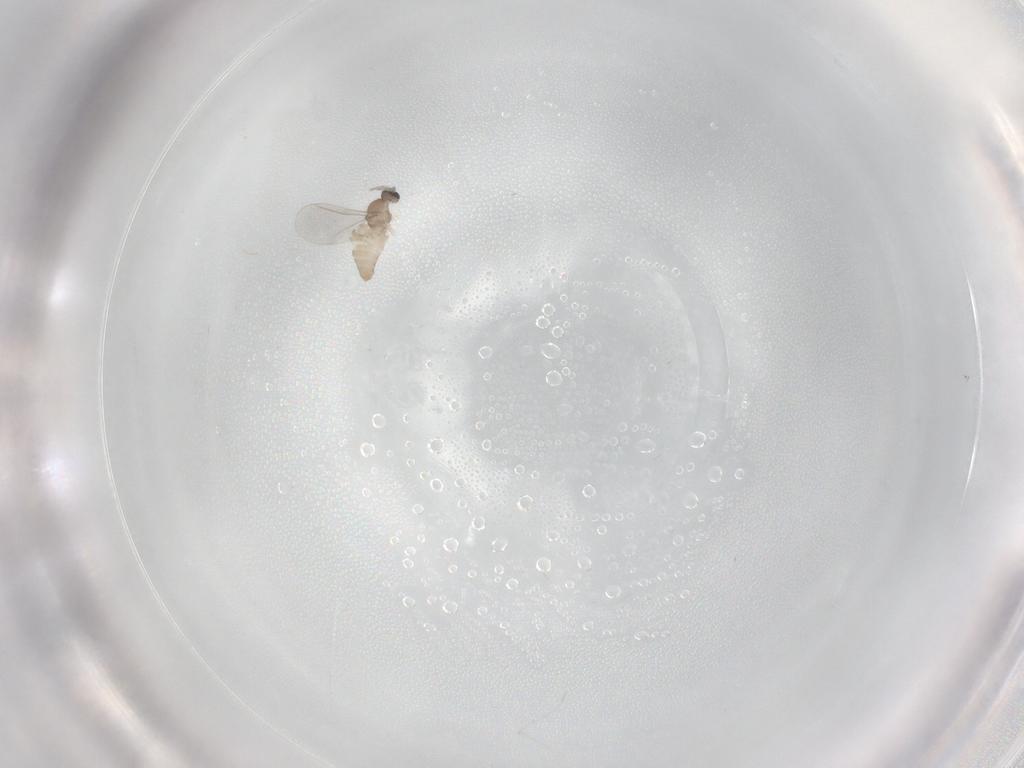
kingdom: Animalia
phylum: Arthropoda
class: Insecta
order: Diptera
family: Cecidomyiidae
